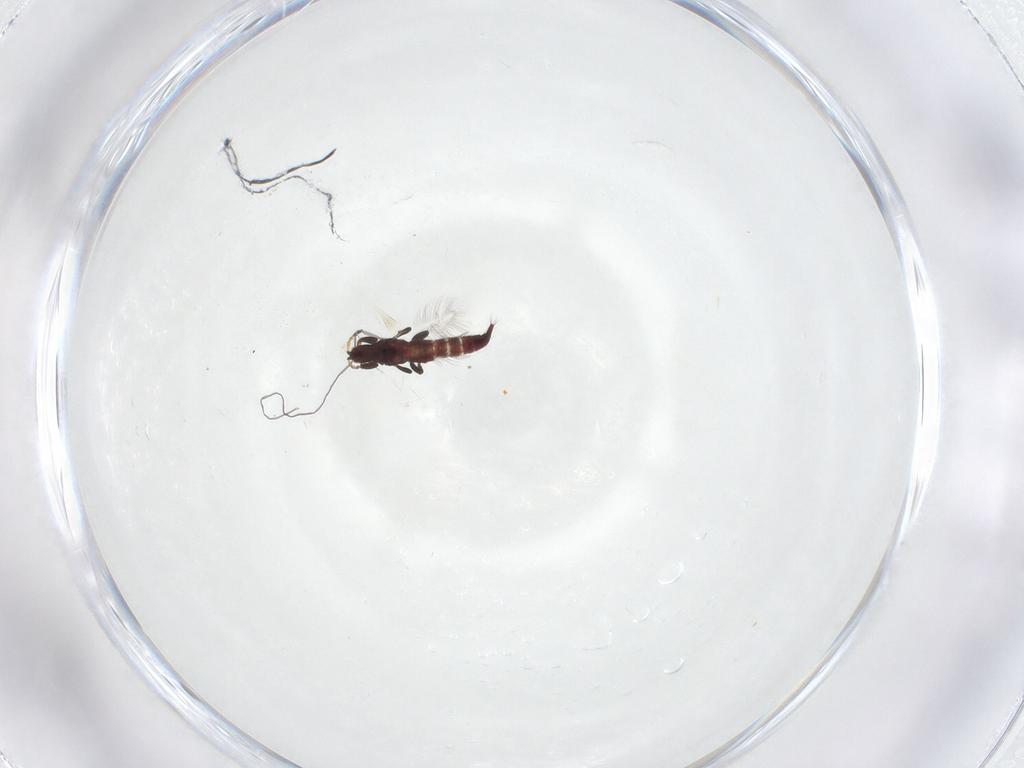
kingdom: Animalia
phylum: Arthropoda
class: Insecta
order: Thysanoptera
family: Phlaeothripidae
